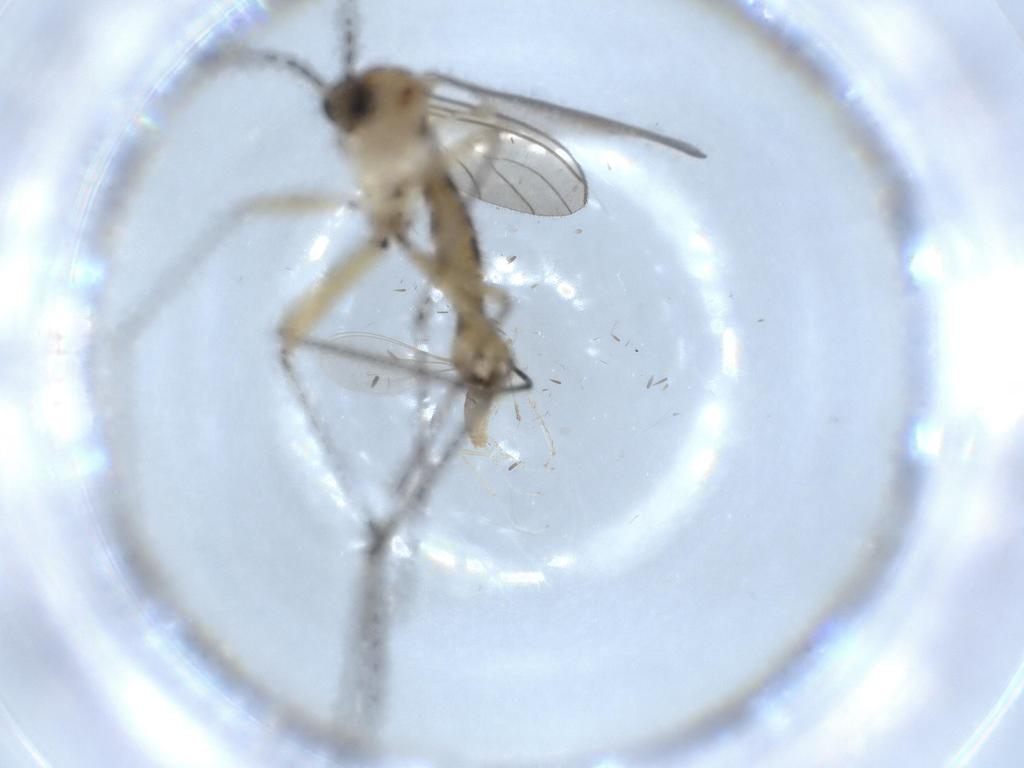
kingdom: Animalia
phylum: Arthropoda
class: Insecta
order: Diptera
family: Sciaridae
